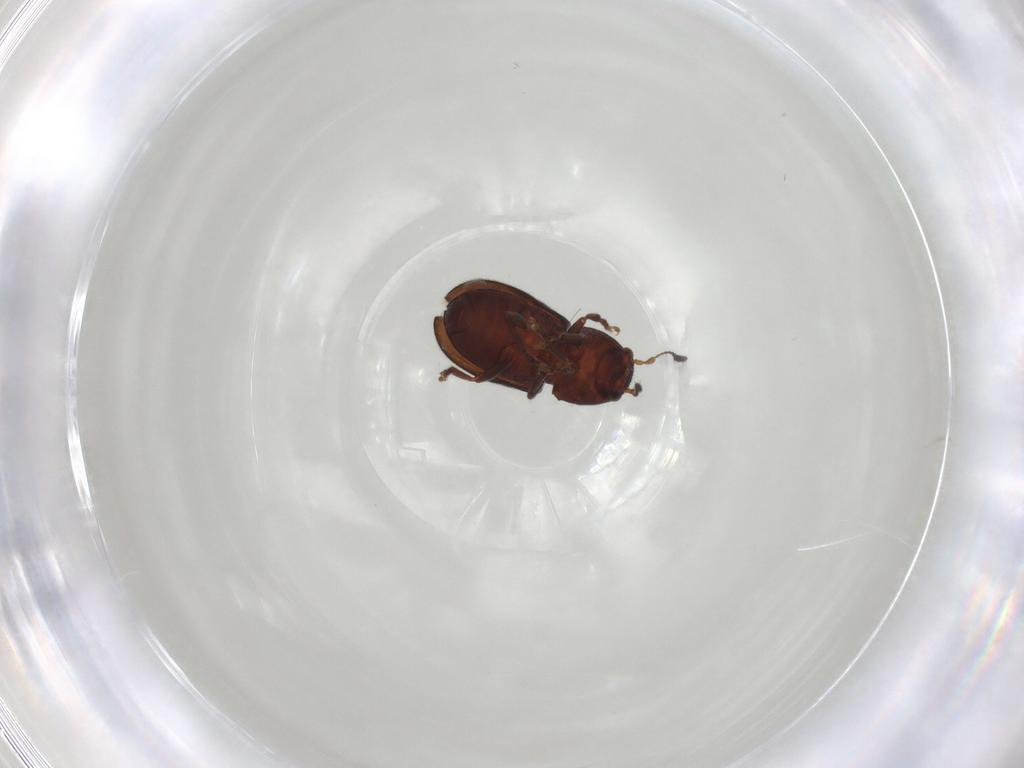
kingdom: Animalia
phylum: Arthropoda
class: Insecta
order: Coleoptera
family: Anthribidae
